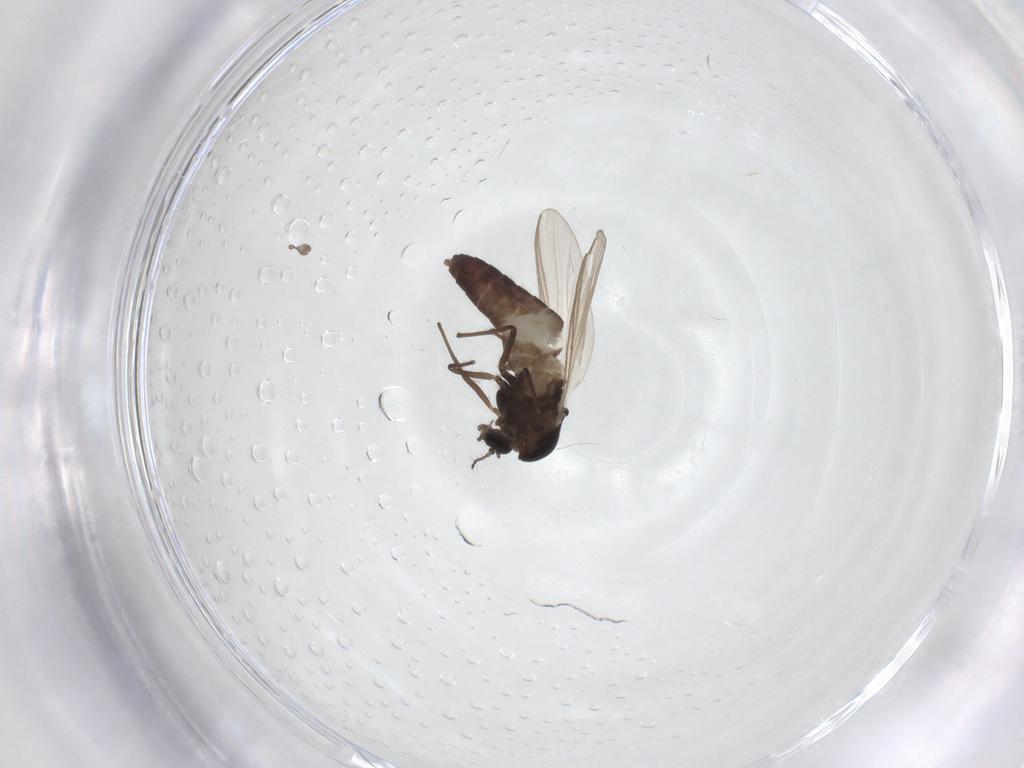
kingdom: Animalia
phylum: Arthropoda
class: Insecta
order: Diptera
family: Chironomidae
